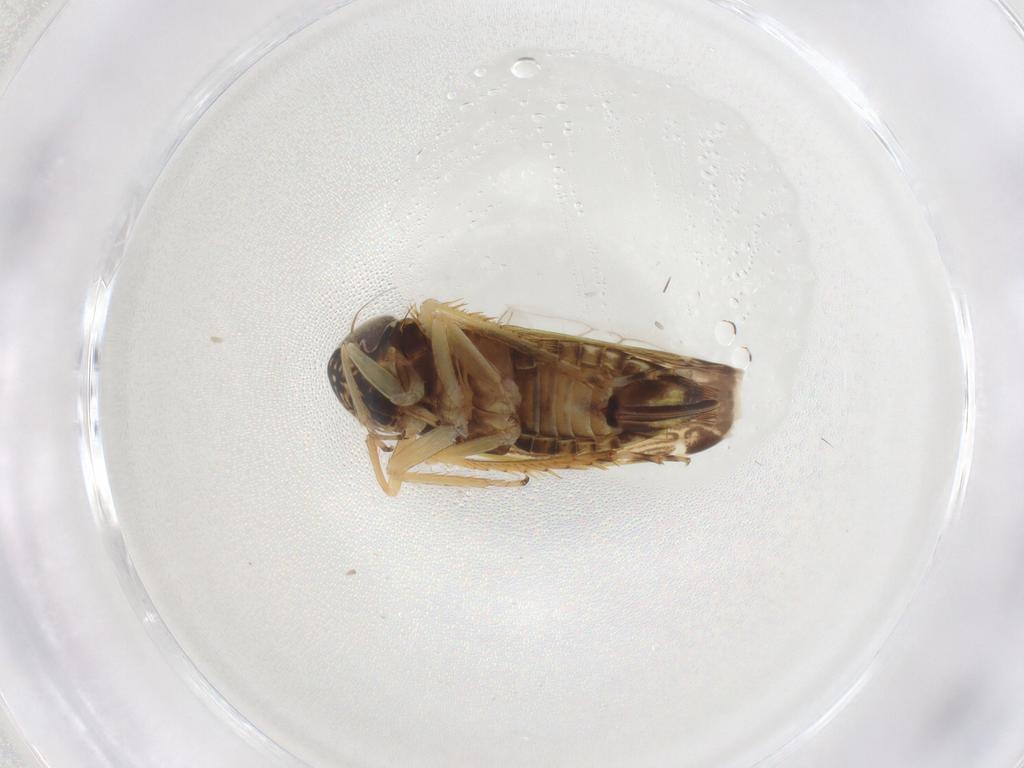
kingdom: Animalia
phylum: Arthropoda
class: Insecta
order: Hemiptera
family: Cicadellidae
